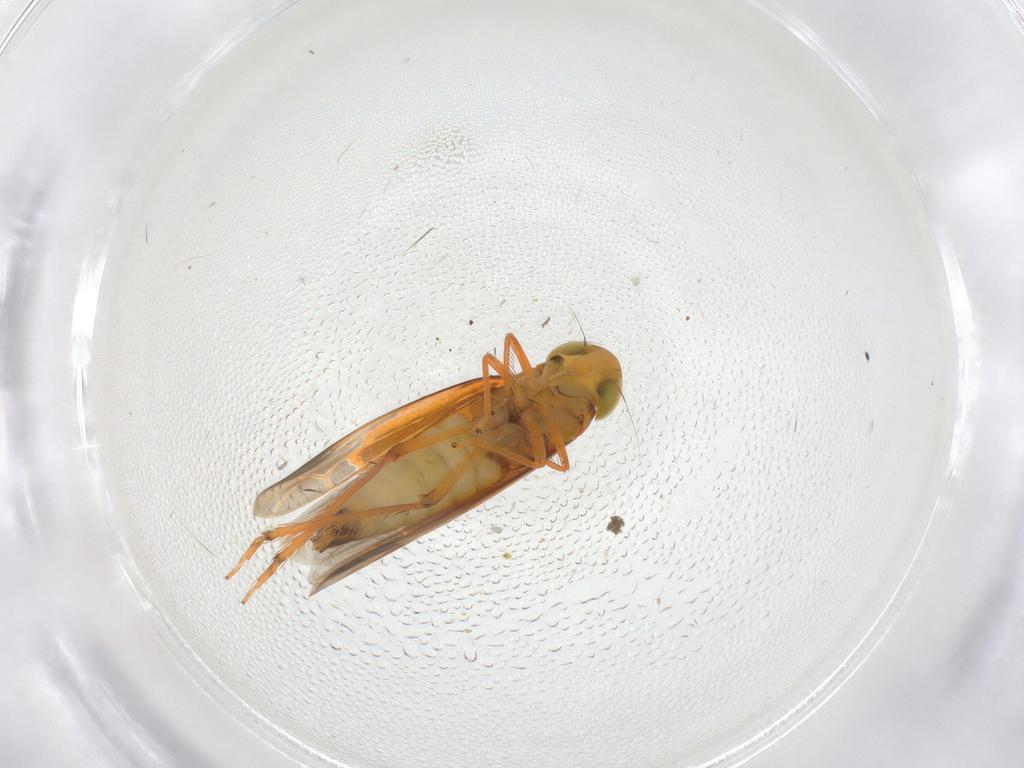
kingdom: Animalia
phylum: Arthropoda
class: Insecta
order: Hemiptera
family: Cicadellidae
